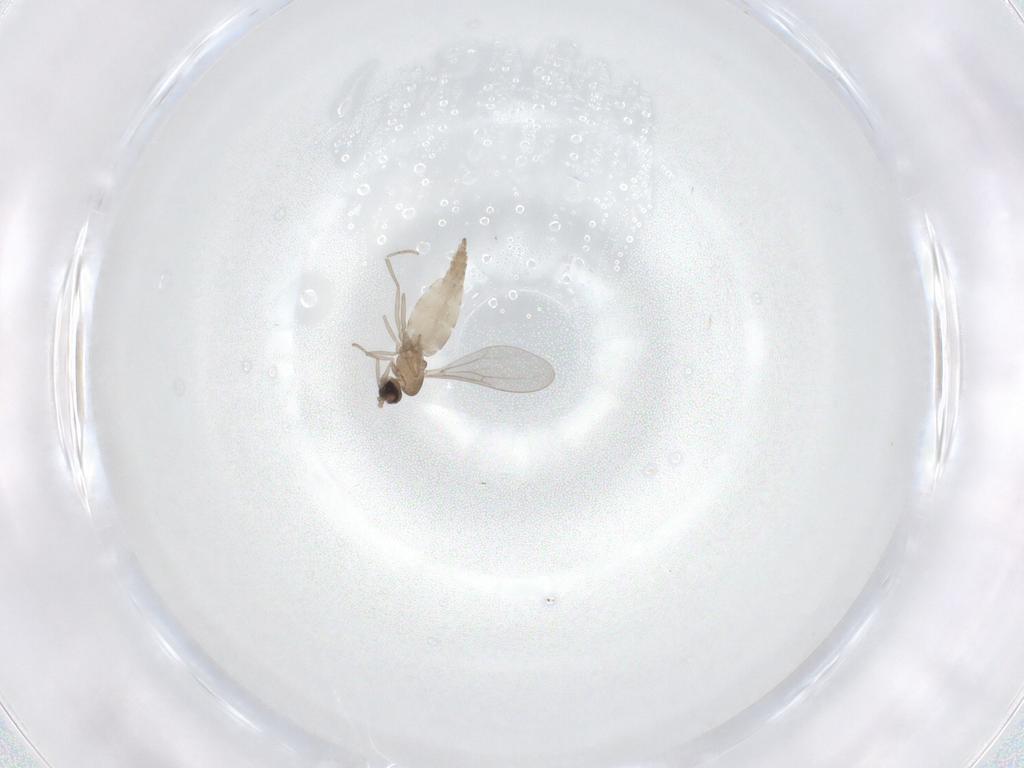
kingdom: Animalia
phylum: Arthropoda
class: Insecta
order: Diptera
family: Cecidomyiidae
